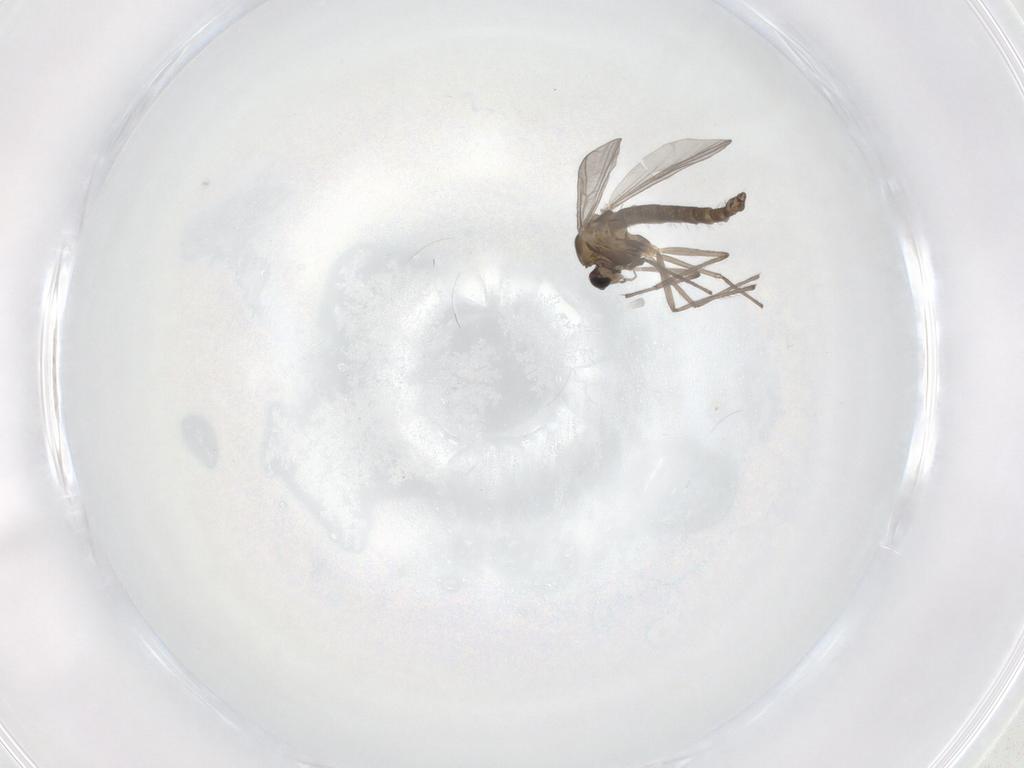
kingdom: Animalia
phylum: Arthropoda
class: Insecta
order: Diptera
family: Chironomidae
